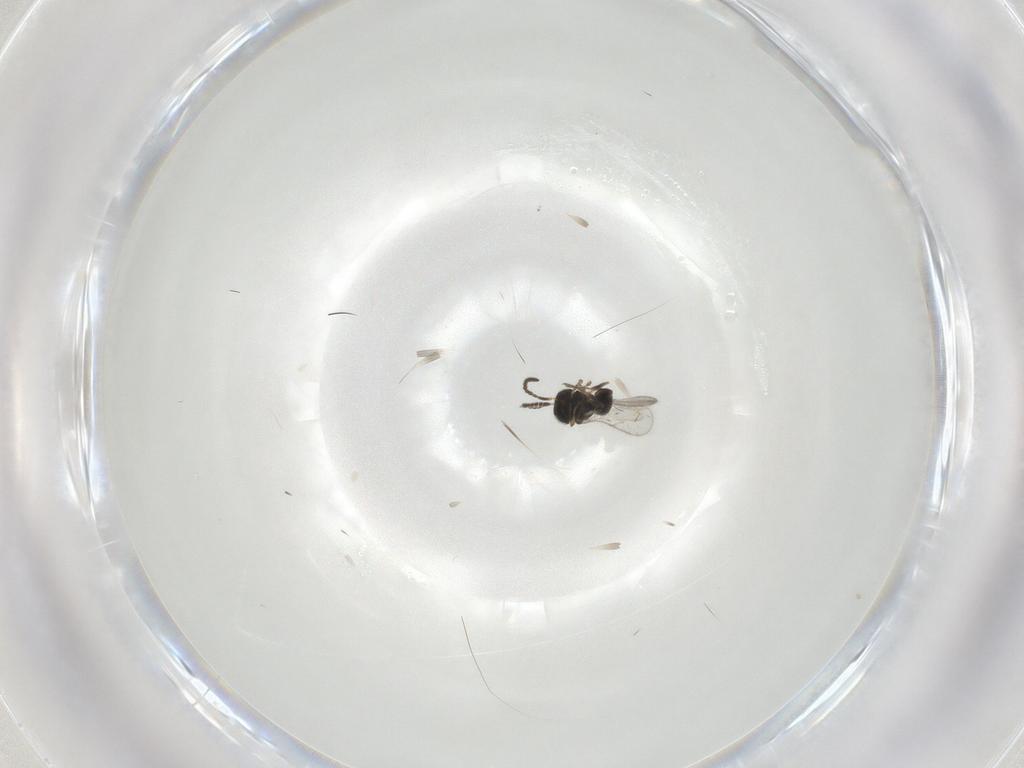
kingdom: Animalia
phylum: Arthropoda
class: Insecta
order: Hymenoptera
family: Scelionidae
